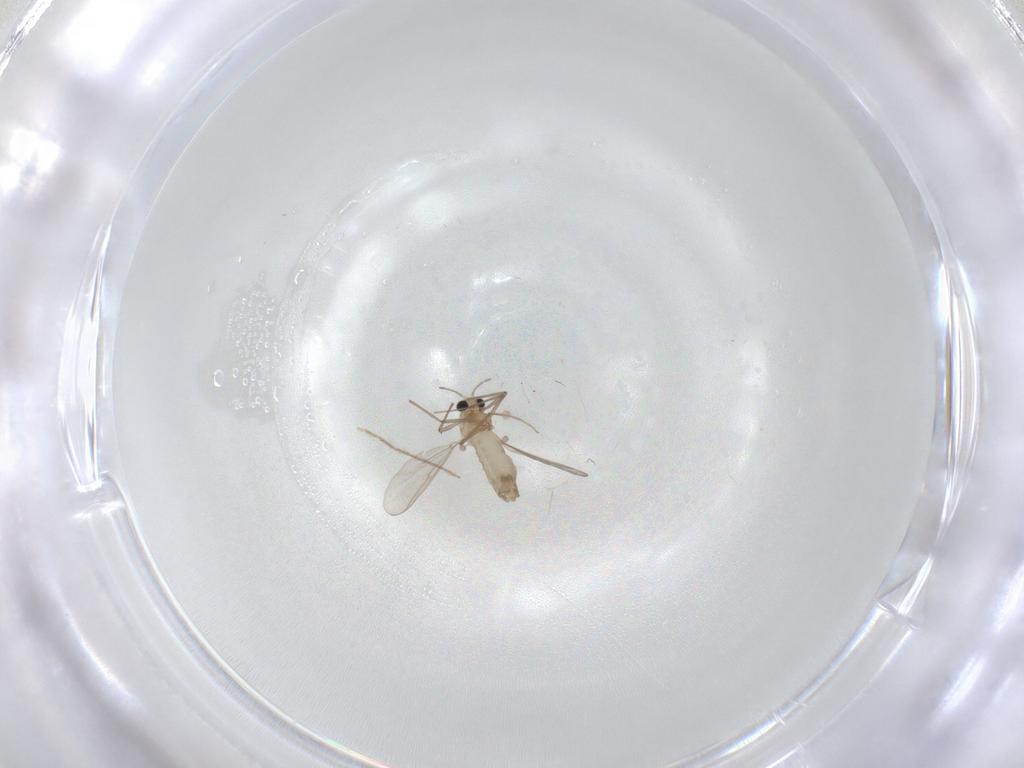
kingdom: Animalia
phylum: Arthropoda
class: Insecta
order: Diptera
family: Chironomidae
